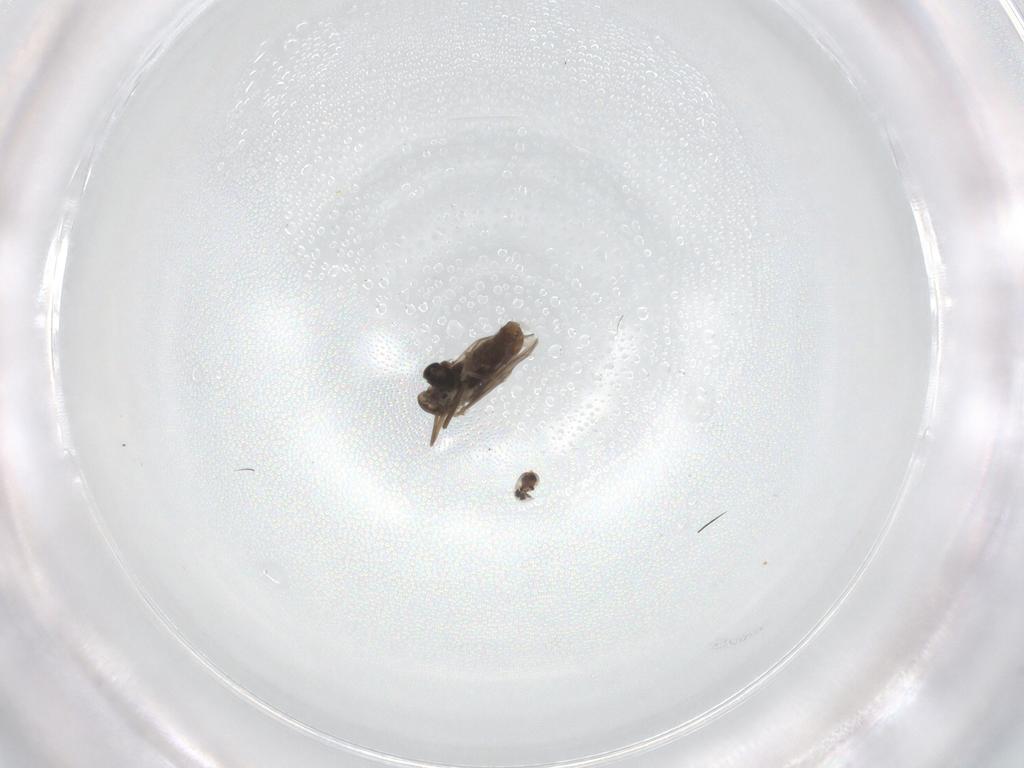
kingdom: Animalia
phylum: Arthropoda
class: Insecta
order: Diptera
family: Cecidomyiidae
